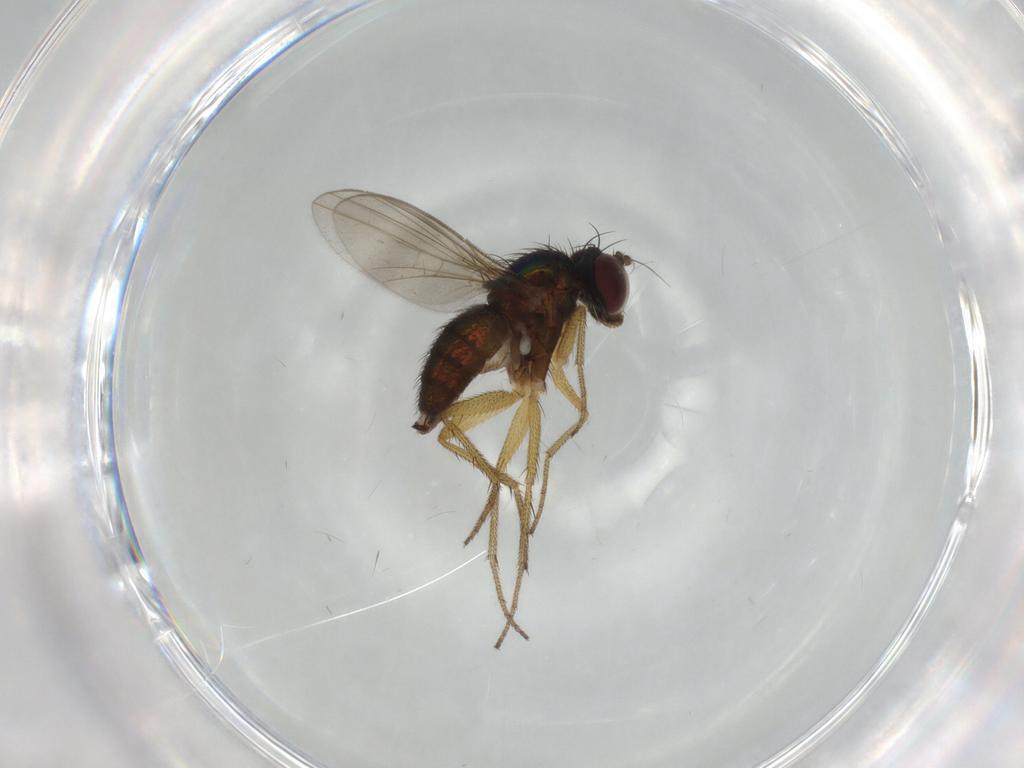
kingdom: Animalia
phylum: Arthropoda
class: Insecta
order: Diptera
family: Dolichopodidae
